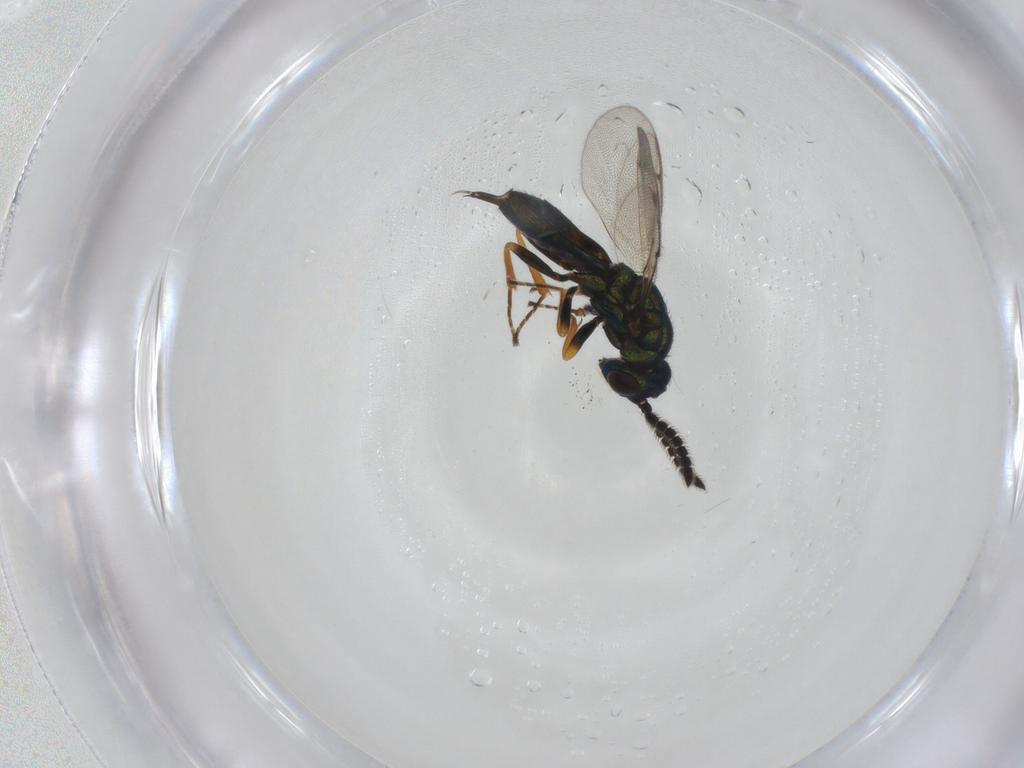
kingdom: Animalia
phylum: Arthropoda
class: Insecta
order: Hymenoptera
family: Pirenidae
